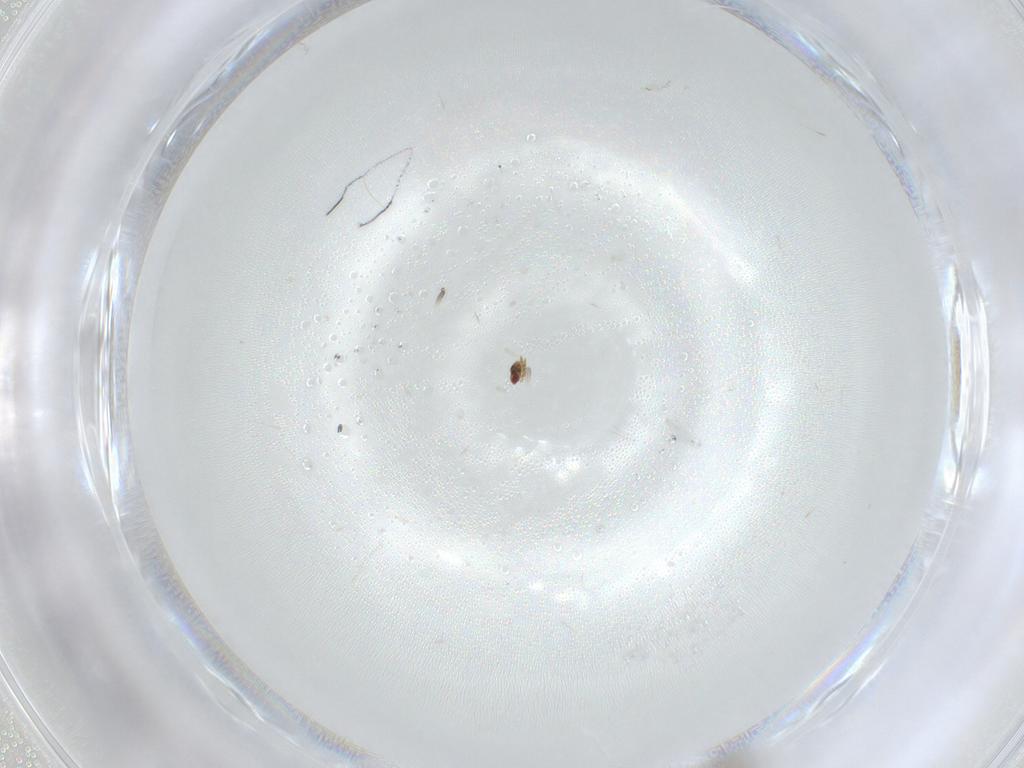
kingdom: Animalia
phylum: Arthropoda
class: Insecta
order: Hymenoptera
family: Trichogrammatidae
